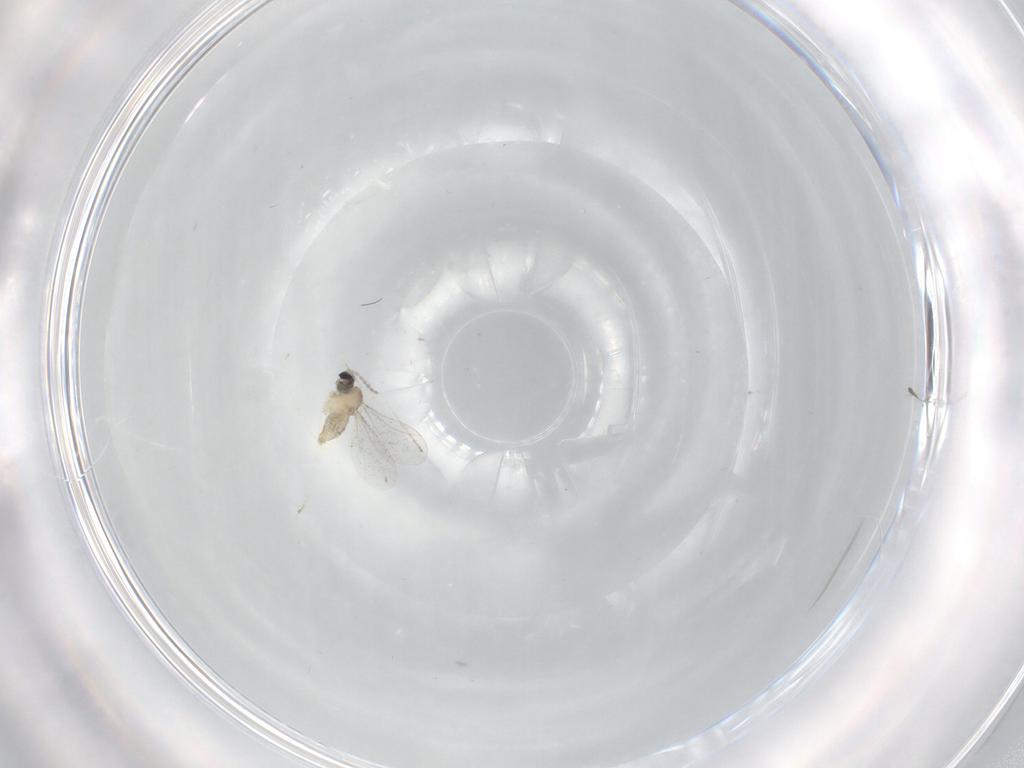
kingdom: Animalia
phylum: Arthropoda
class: Insecta
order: Diptera
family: Cecidomyiidae
